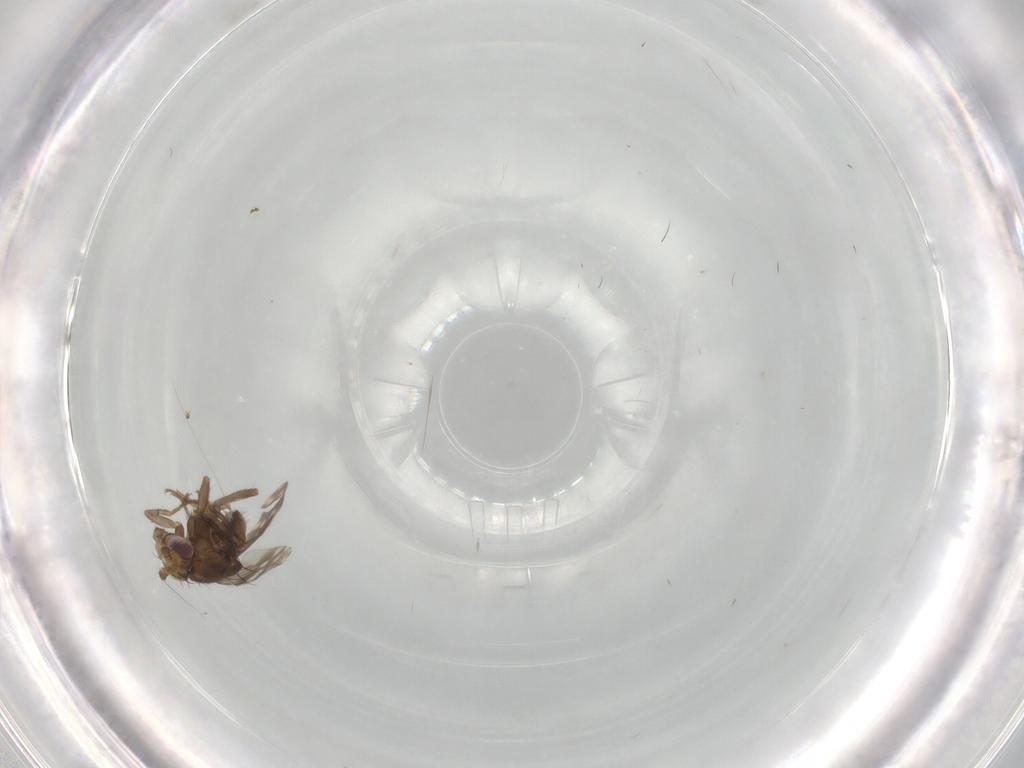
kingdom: Animalia
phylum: Arthropoda
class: Insecta
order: Diptera
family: Sphaeroceridae
